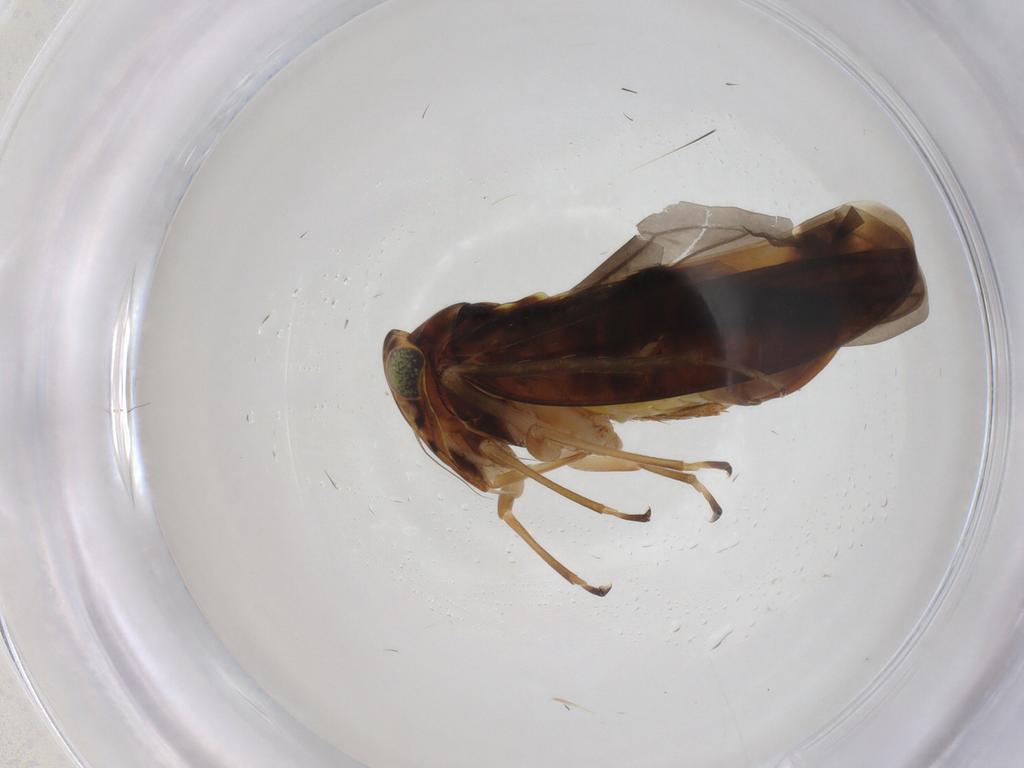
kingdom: Animalia
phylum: Arthropoda
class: Insecta
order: Hemiptera
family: Cicadellidae
